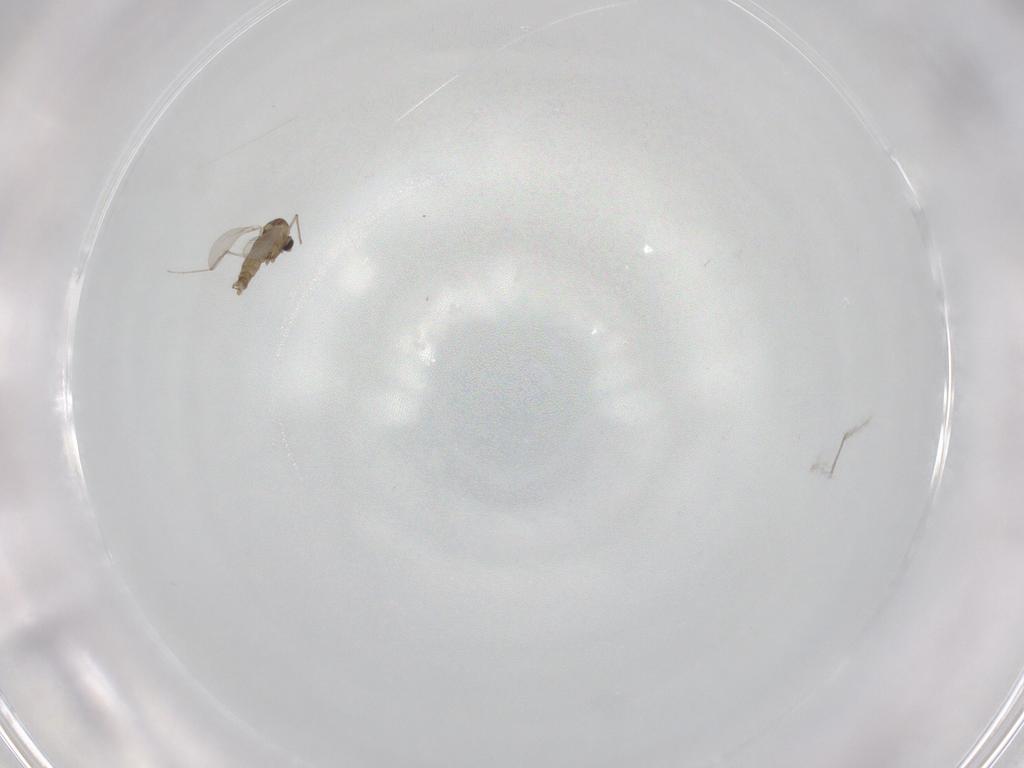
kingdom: Animalia
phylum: Arthropoda
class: Insecta
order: Diptera
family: Chironomidae
